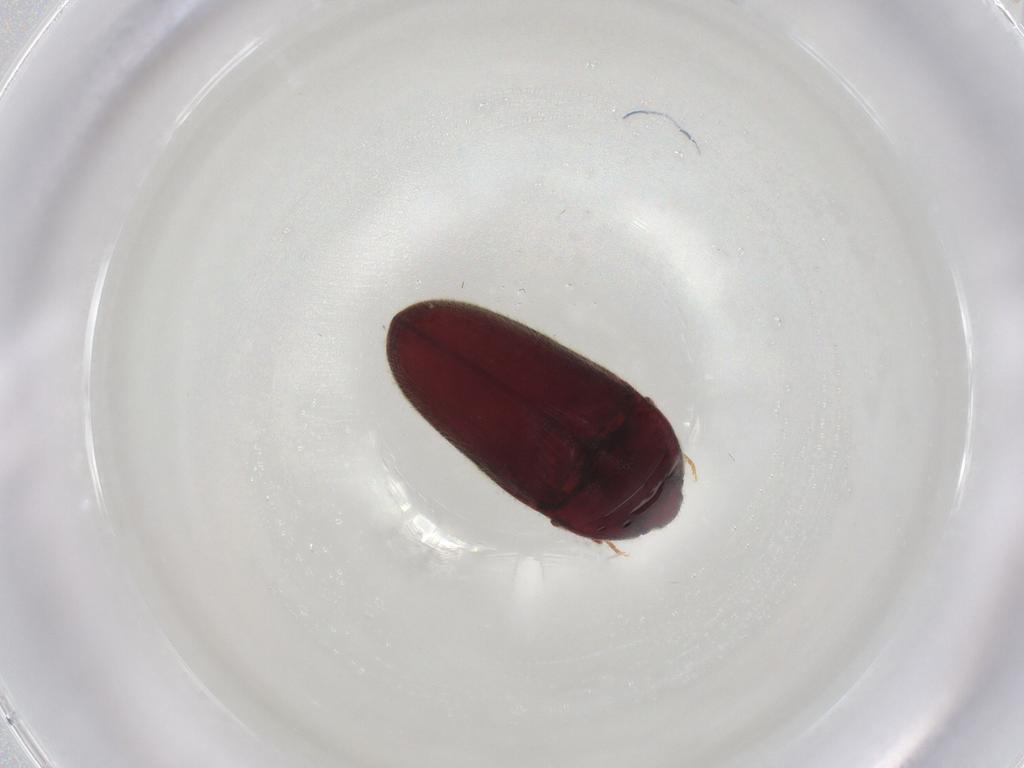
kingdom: Animalia
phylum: Arthropoda
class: Insecta
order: Coleoptera
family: Throscidae
